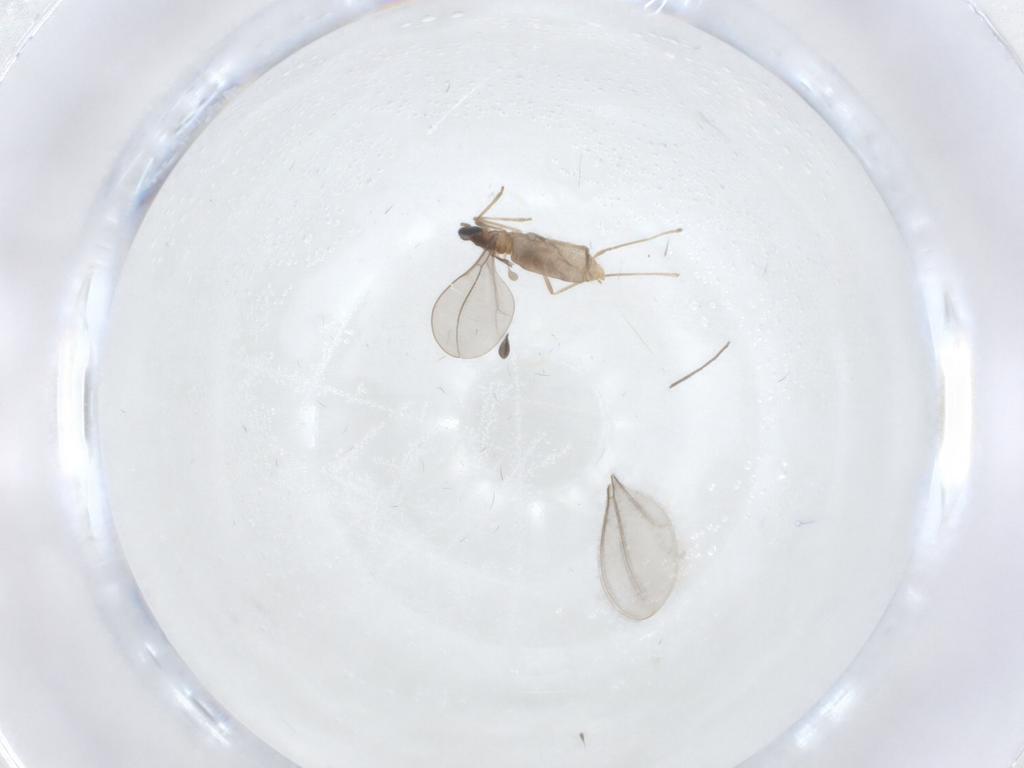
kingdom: Animalia
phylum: Arthropoda
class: Insecta
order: Diptera
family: Cecidomyiidae
